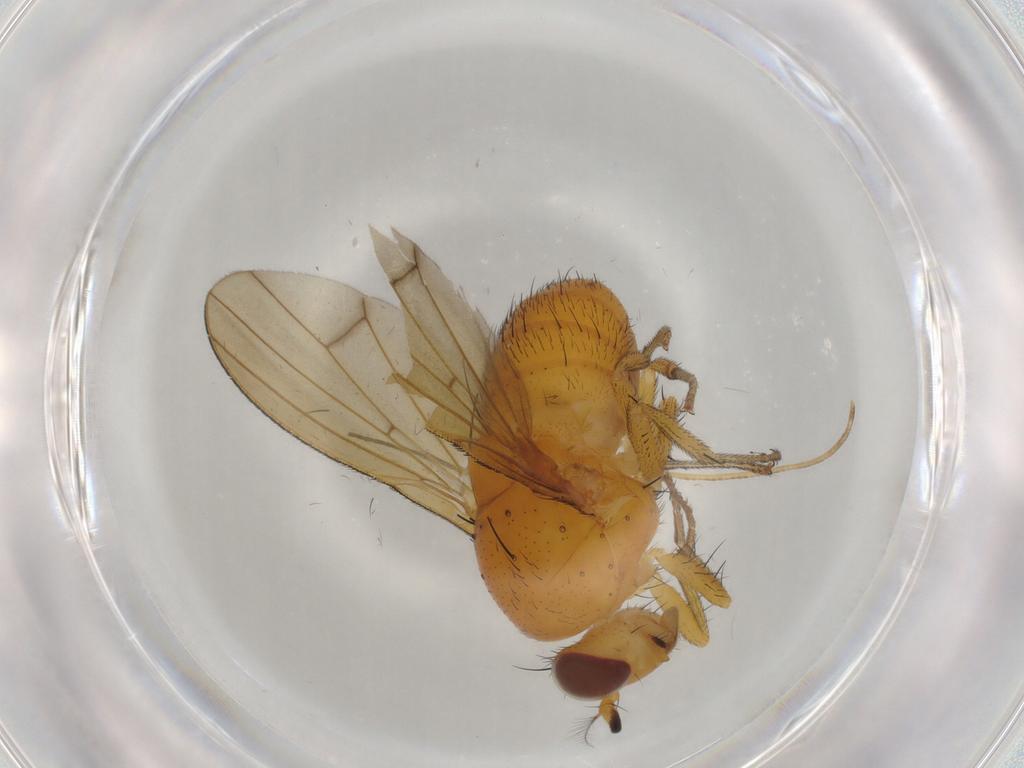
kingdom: Animalia
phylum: Arthropoda
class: Insecta
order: Diptera
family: Lauxaniidae
